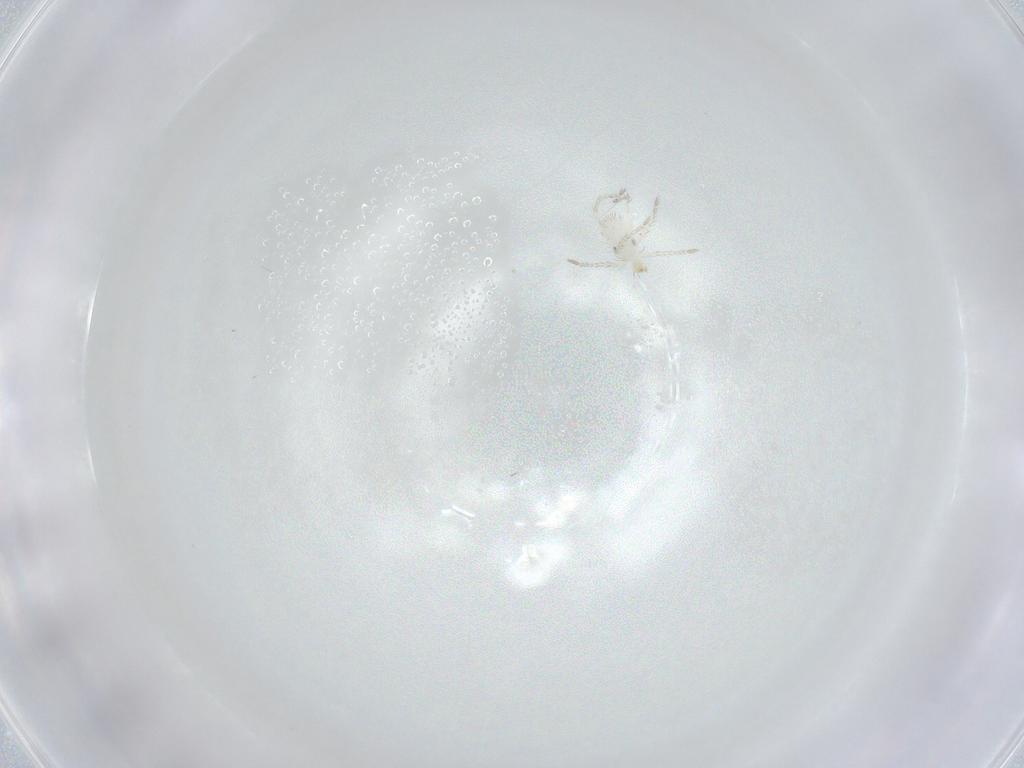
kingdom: Animalia
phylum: Arthropoda
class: Arachnida
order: Trombidiformes
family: Smarididae
